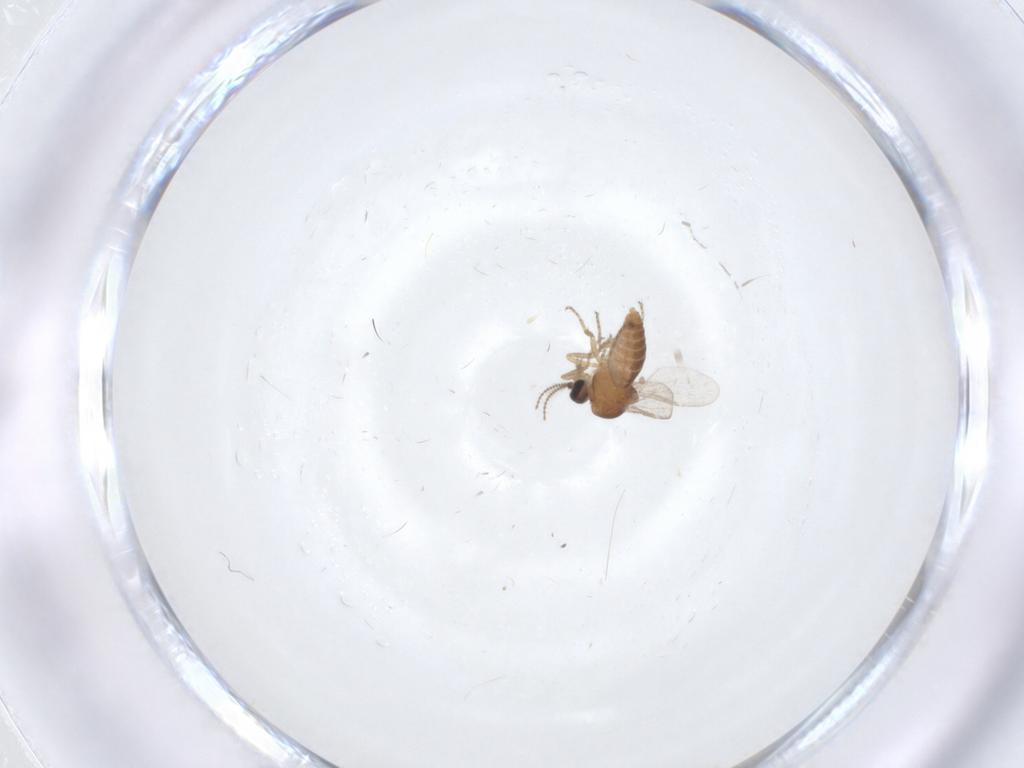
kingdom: Animalia
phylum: Arthropoda
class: Insecta
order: Diptera
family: Ceratopogonidae
